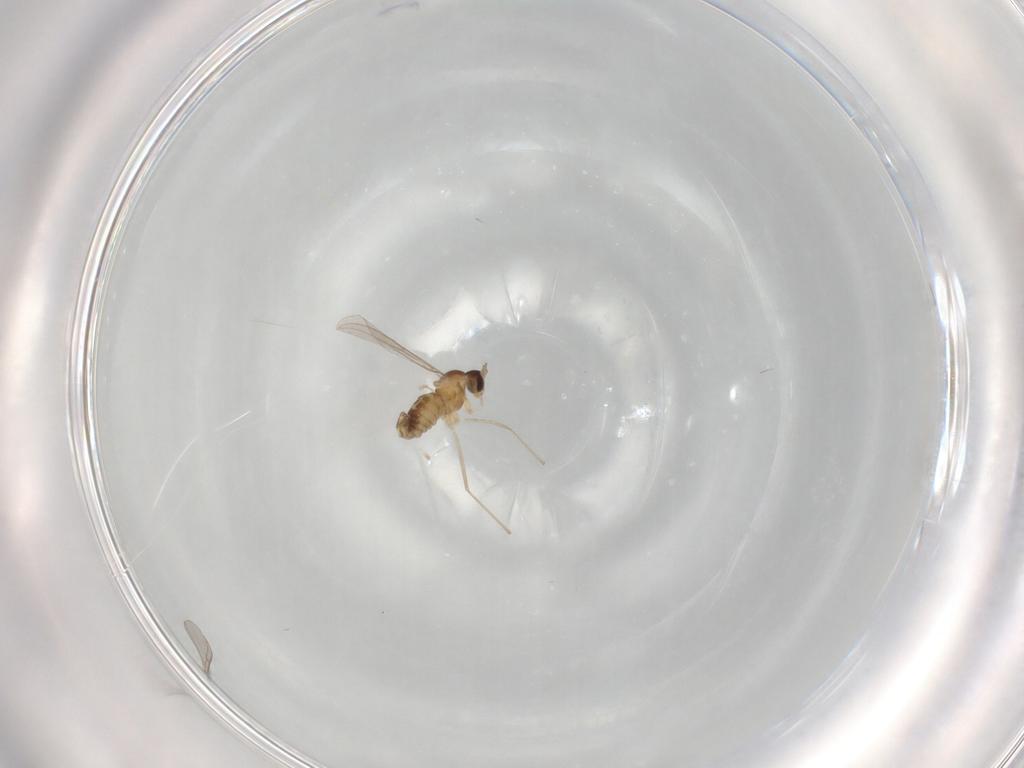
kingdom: Animalia
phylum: Arthropoda
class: Insecta
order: Diptera
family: Cecidomyiidae
